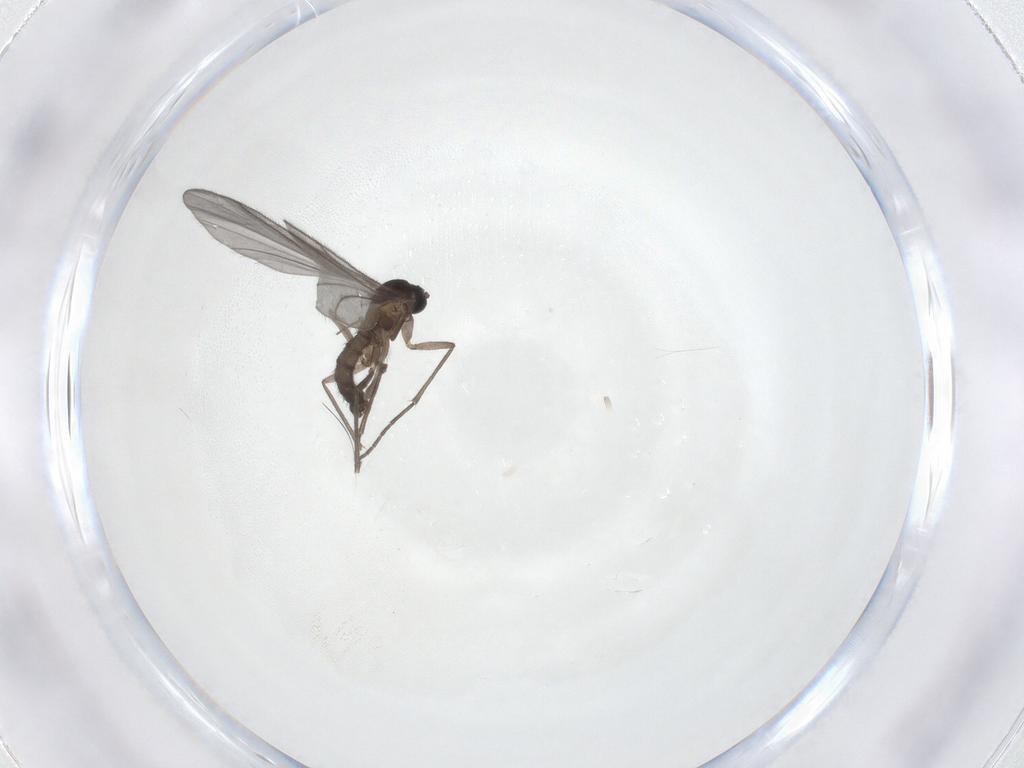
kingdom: Animalia
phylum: Arthropoda
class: Insecta
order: Diptera
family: Sciaridae
